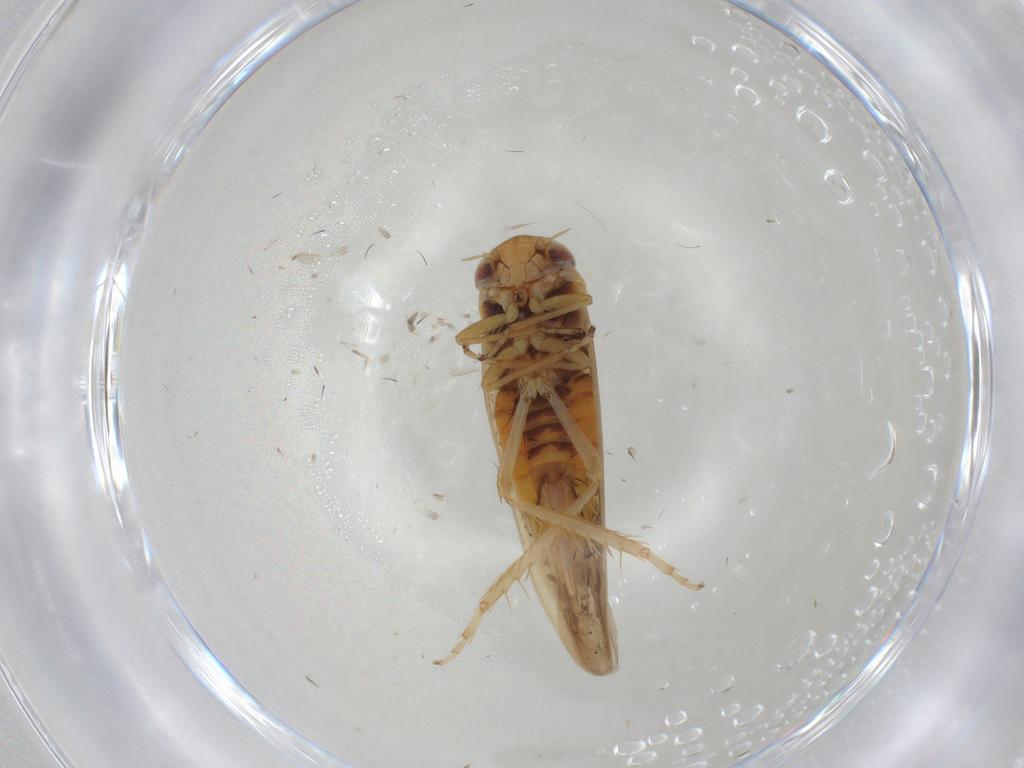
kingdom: Animalia
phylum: Arthropoda
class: Insecta
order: Hemiptera
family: Cicadellidae
